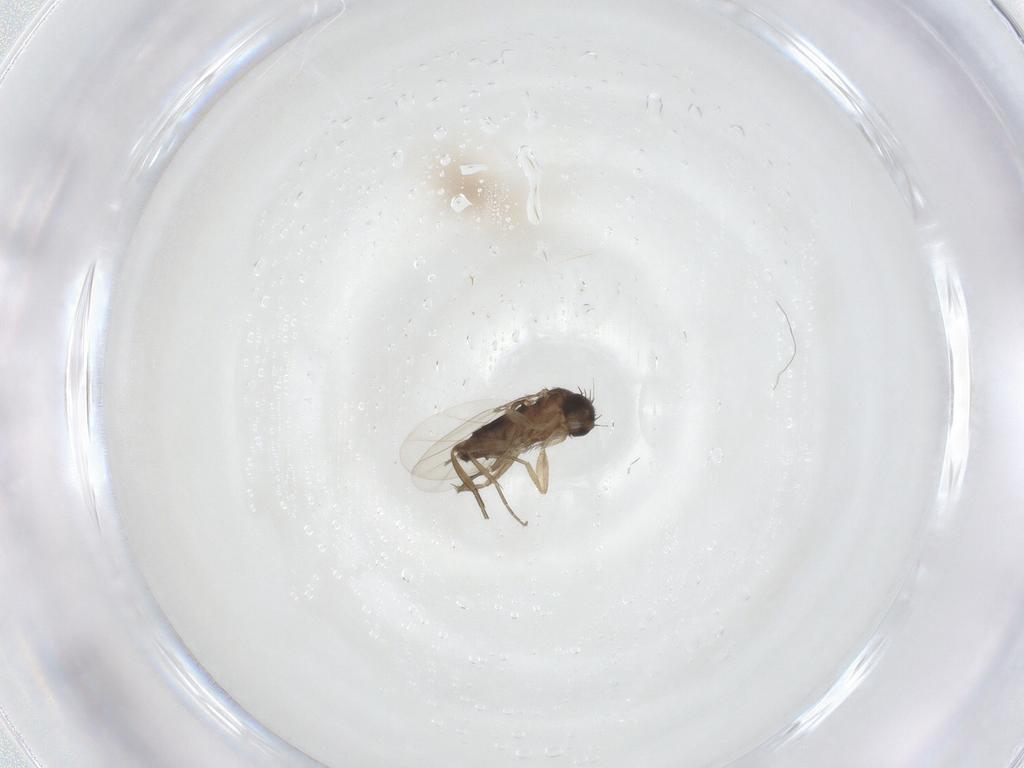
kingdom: Animalia
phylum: Arthropoda
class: Insecta
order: Diptera
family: Phoridae
